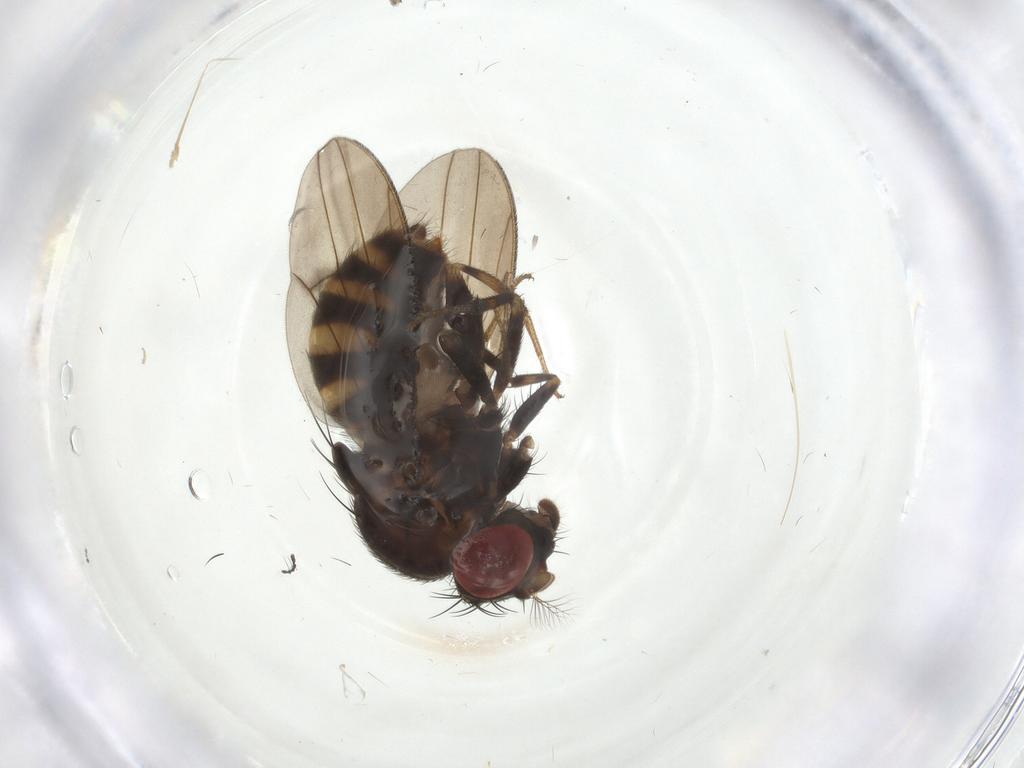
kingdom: Animalia
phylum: Arthropoda
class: Insecta
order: Diptera
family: Drosophilidae
